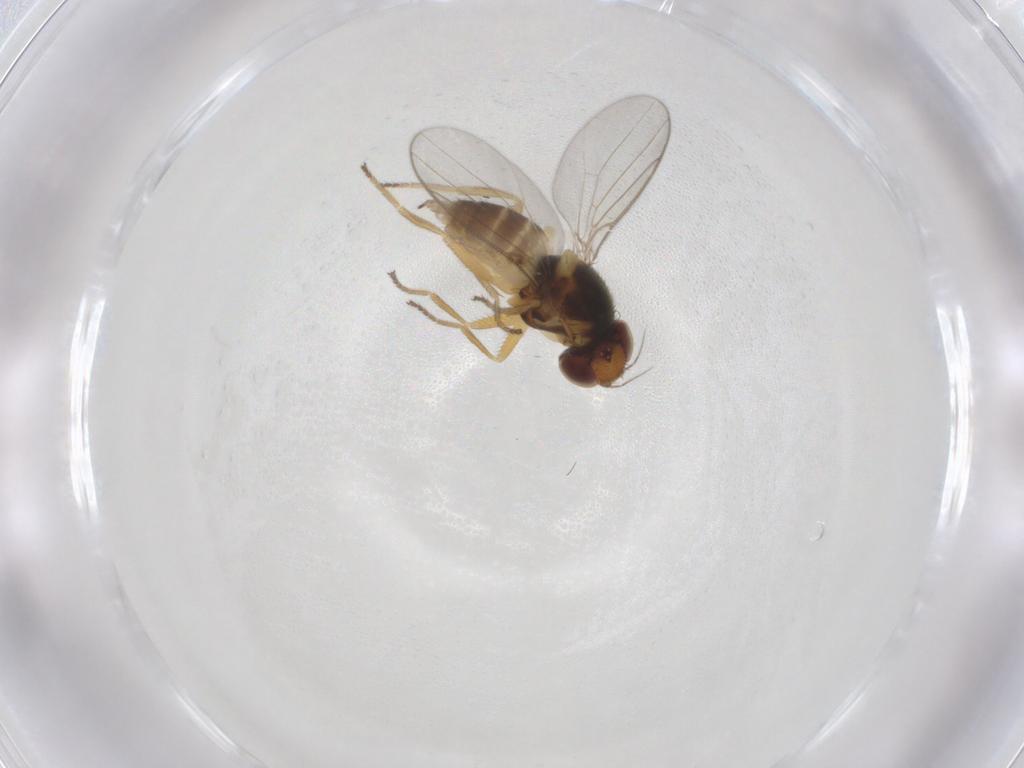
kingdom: Animalia
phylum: Arthropoda
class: Insecta
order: Diptera
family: Chloropidae
